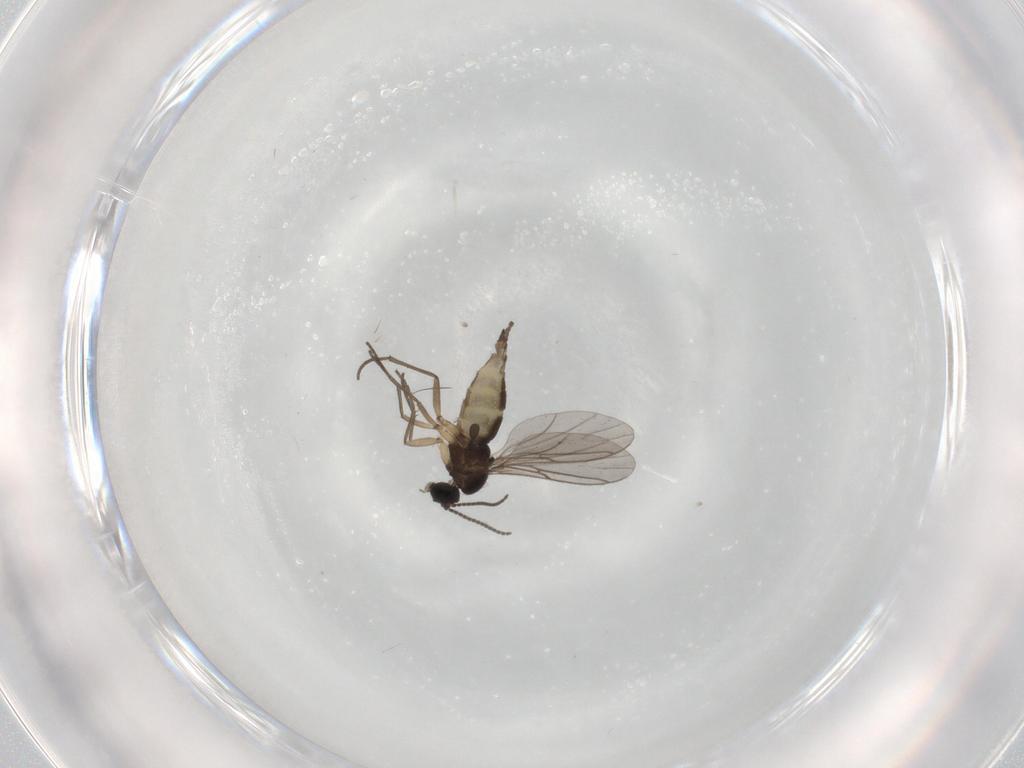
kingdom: Animalia
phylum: Arthropoda
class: Insecta
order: Diptera
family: Sciaridae
